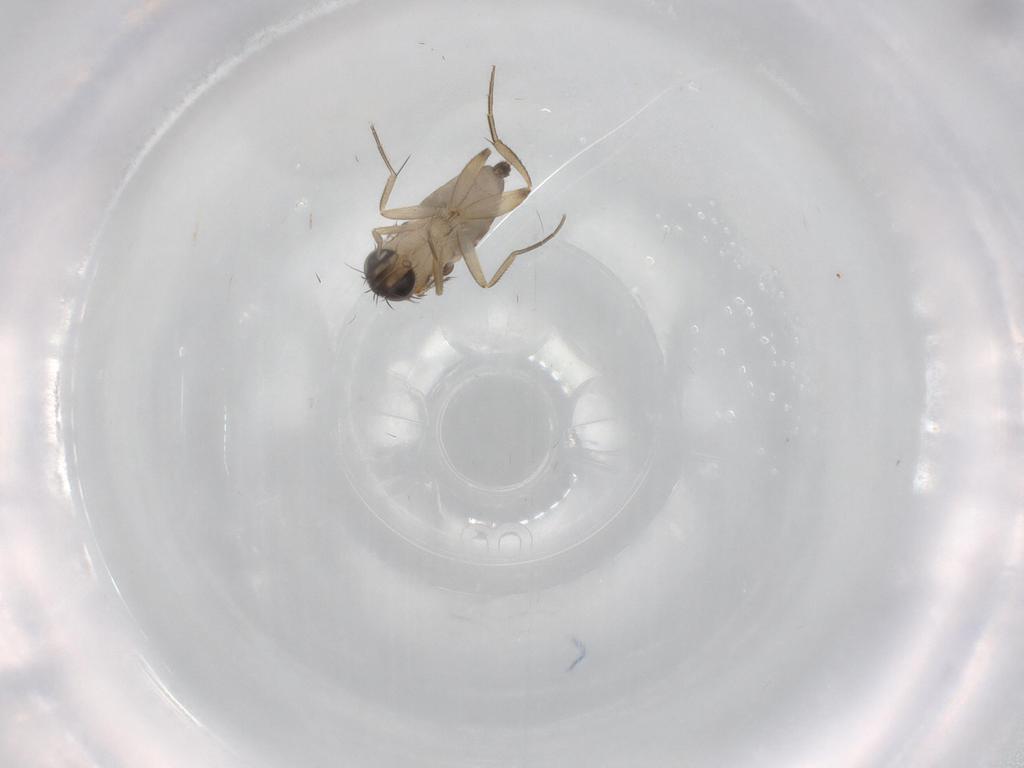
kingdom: Animalia
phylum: Arthropoda
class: Insecta
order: Diptera
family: Phoridae
